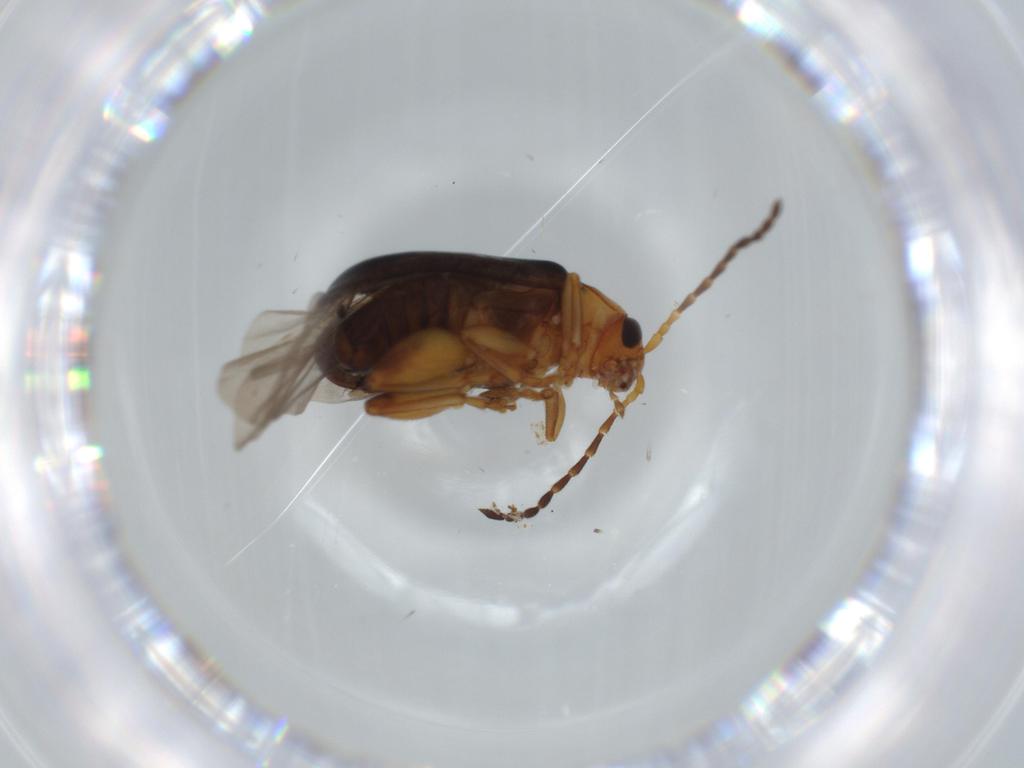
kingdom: Animalia
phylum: Arthropoda
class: Insecta
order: Coleoptera
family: Chrysomelidae
